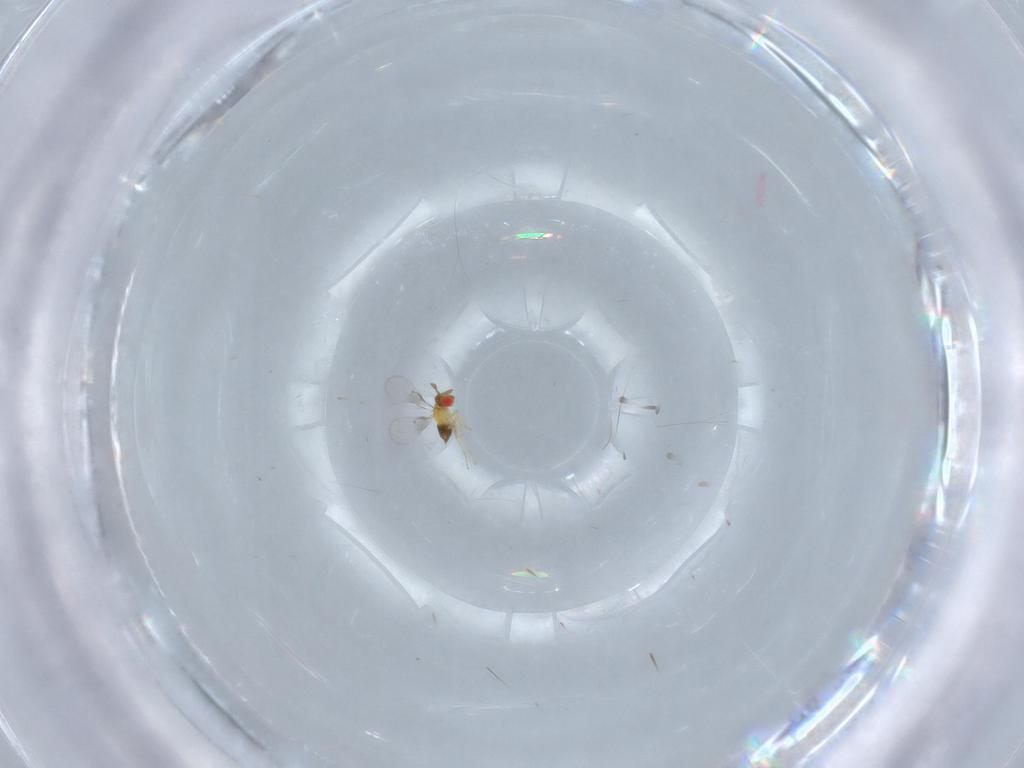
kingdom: Animalia
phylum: Arthropoda
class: Insecta
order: Hymenoptera
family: Trichogrammatidae
